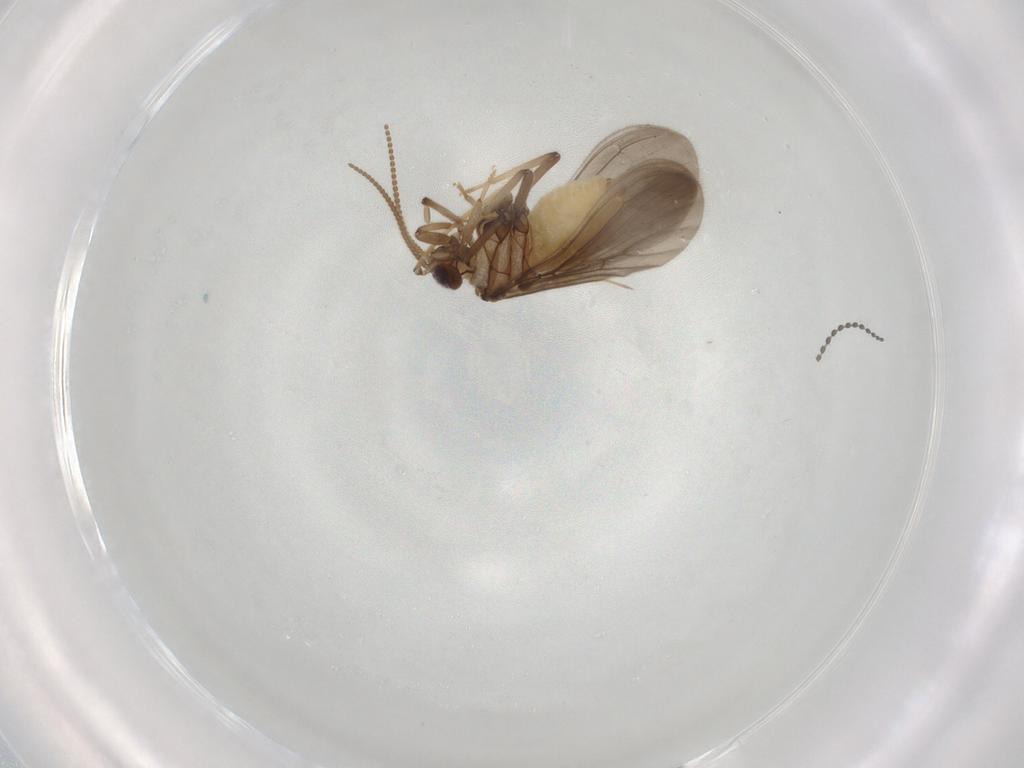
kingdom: Animalia
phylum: Arthropoda
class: Insecta
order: Neuroptera
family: Coniopterygidae
